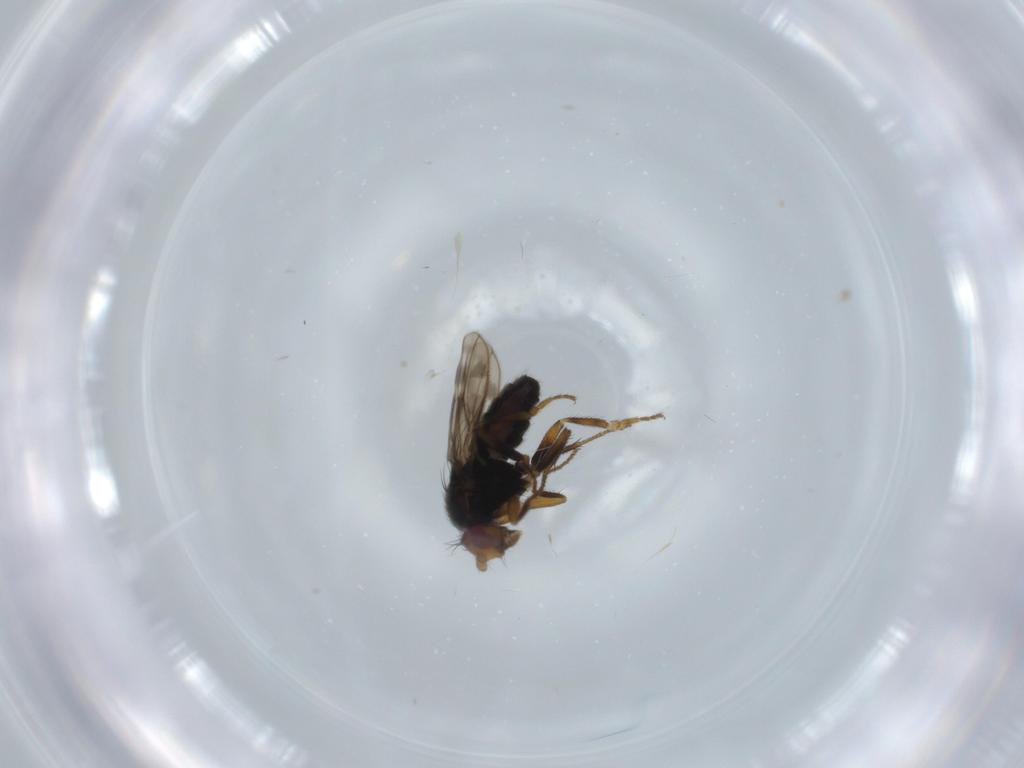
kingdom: Animalia
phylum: Arthropoda
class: Insecta
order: Diptera
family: Sphaeroceridae
